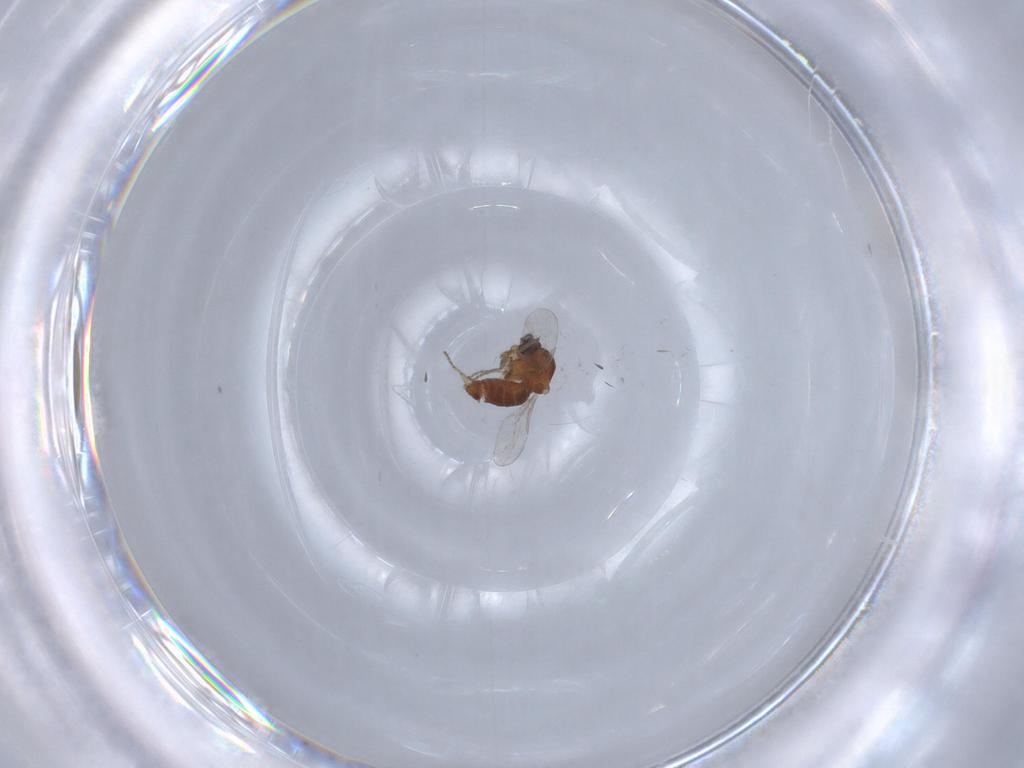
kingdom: Animalia
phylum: Arthropoda
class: Insecta
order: Diptera
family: Ceratopogonidae
